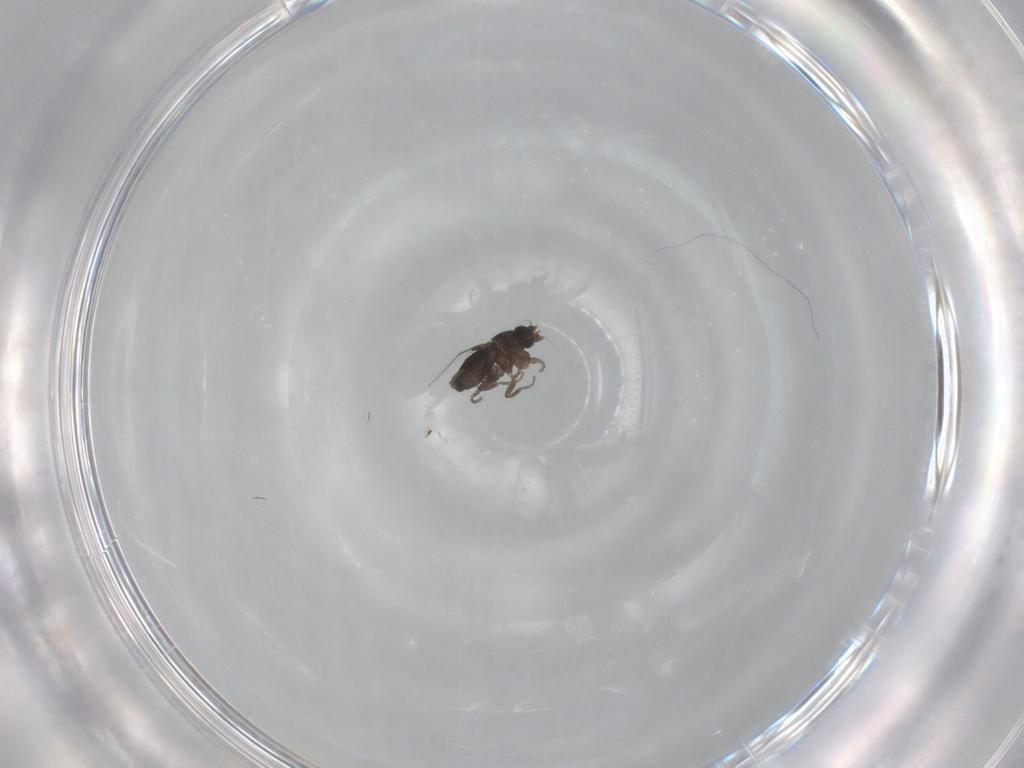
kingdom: Animalia
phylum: Arthropoda
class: Insecta
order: Diptera
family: Phoridae
